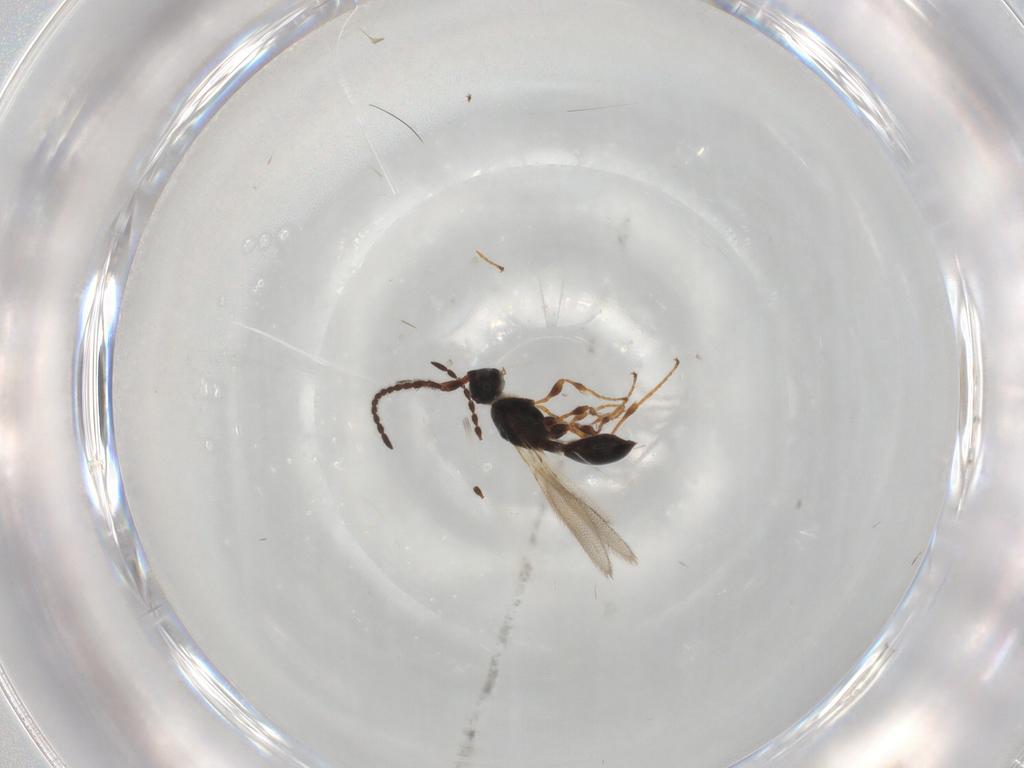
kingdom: Animalia
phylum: Arthropoda
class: Insecta
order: Hymenoptera
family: Diapriidae
